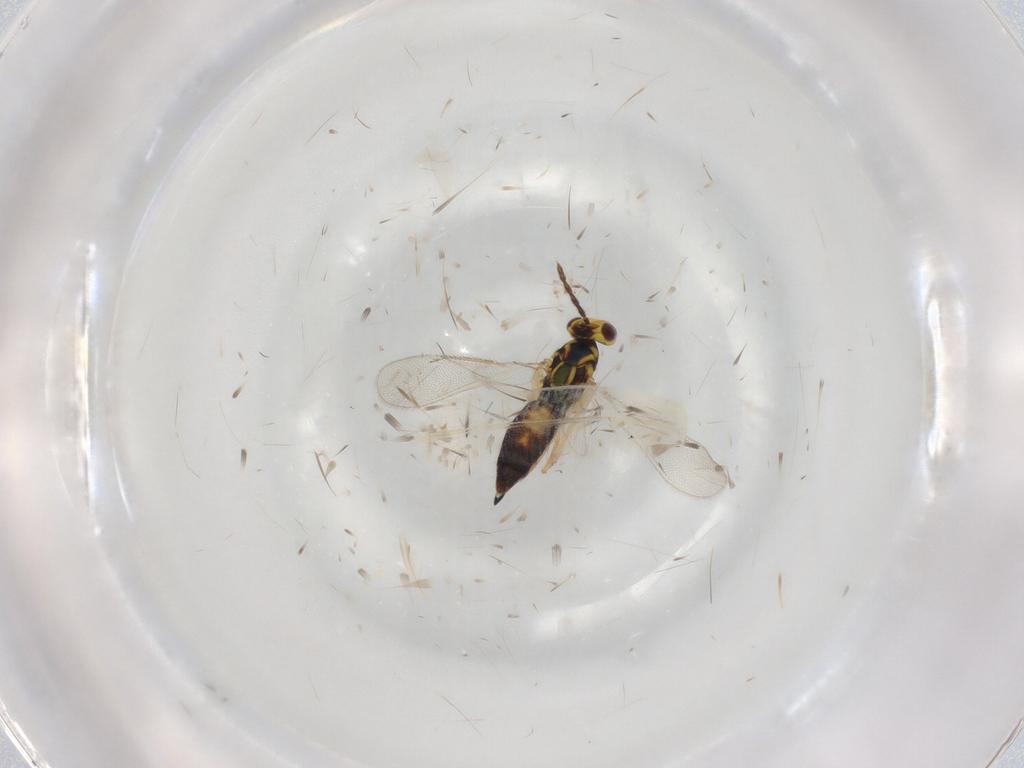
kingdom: Animalia
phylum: Arthropoda
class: Insecta
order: Hymenoptera
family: Eulophidae
